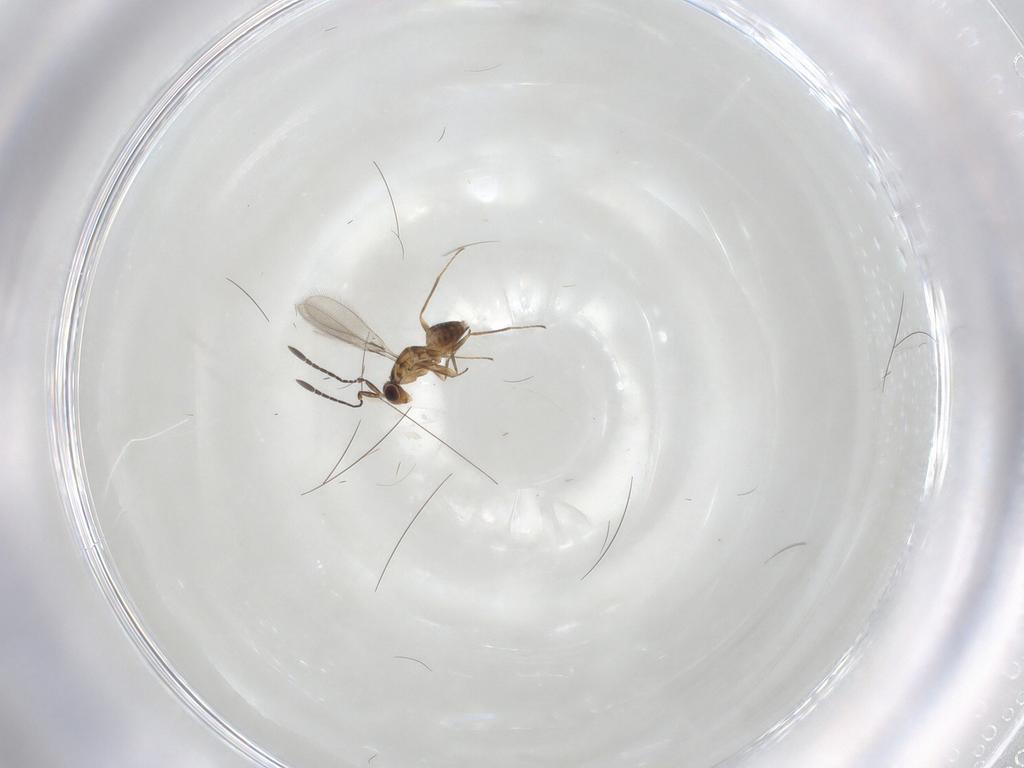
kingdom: Animalia
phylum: Arthropoda
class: Insecta
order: Hymenoptera
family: Mymaridae
